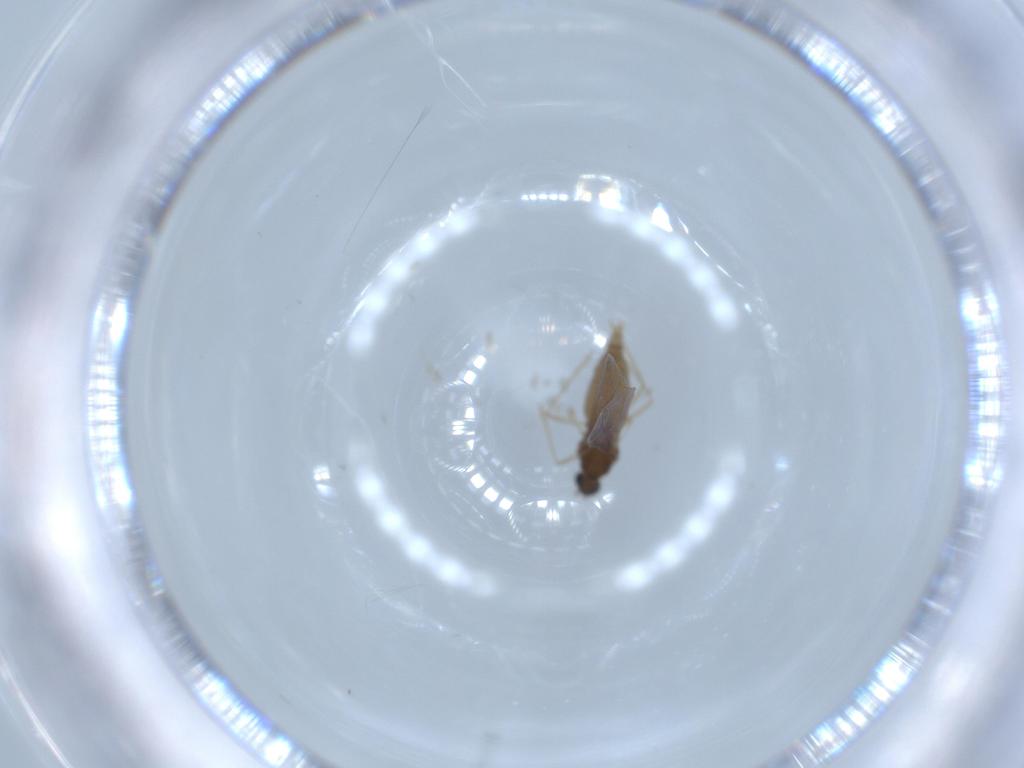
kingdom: Animalia
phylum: Arthropoda
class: Insecta
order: Diptera
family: Cecidomyiidae
